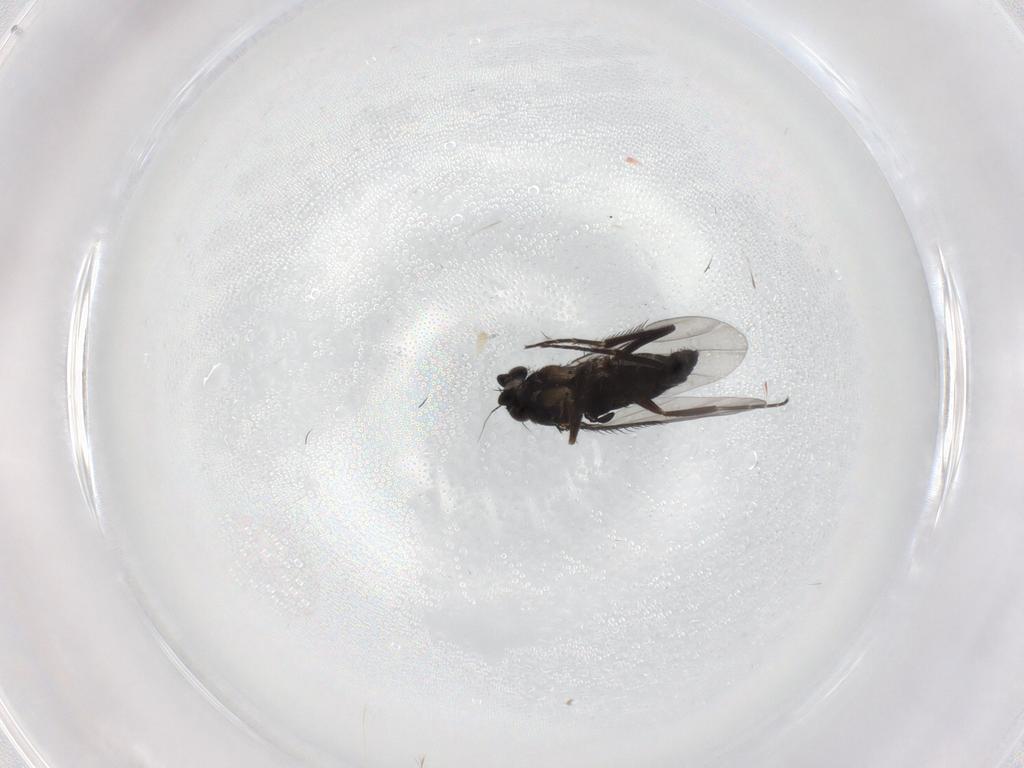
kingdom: Animalia
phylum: Arthropoda
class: Insecta
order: Diptera
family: Phoridae
